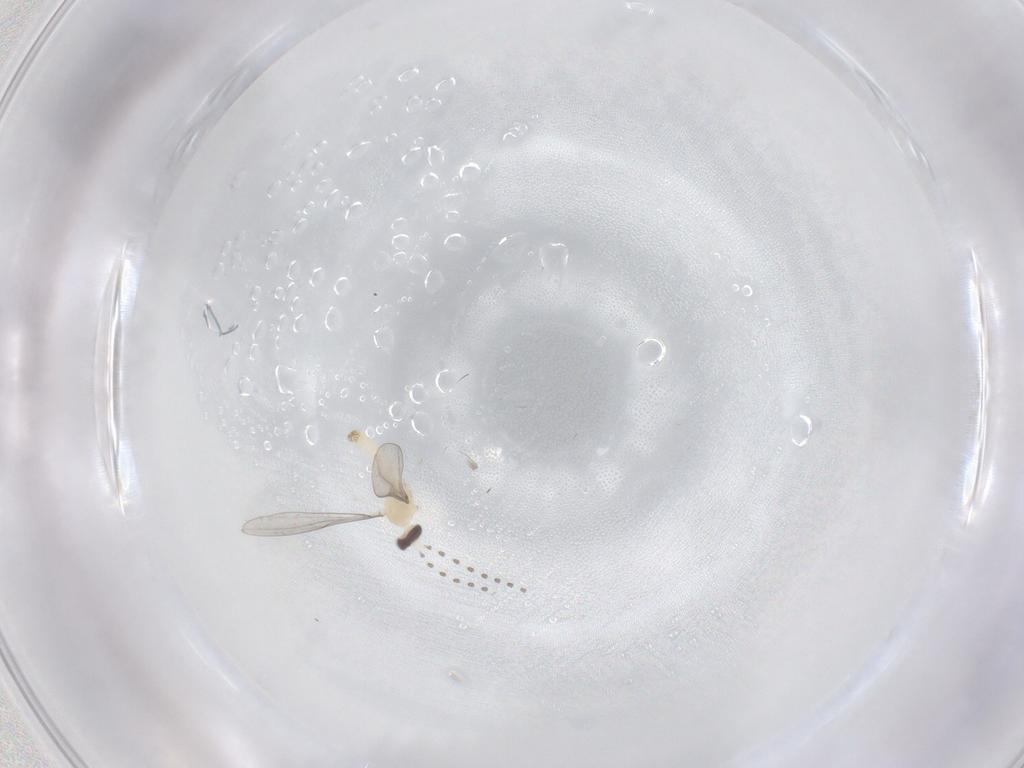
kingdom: Animalia
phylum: Arthropoda
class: Insecta
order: Diptera
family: Cecidomyiidae
